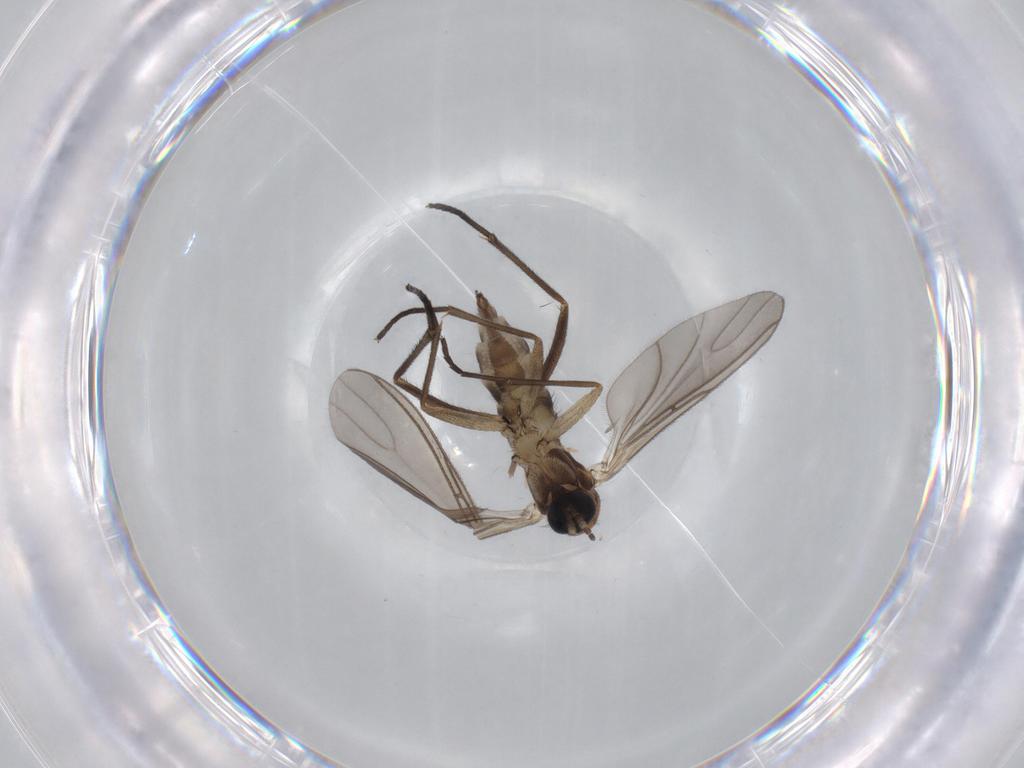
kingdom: Animalia
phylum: Arthropoda
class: Insecta
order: Diptera
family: Sciaridae
